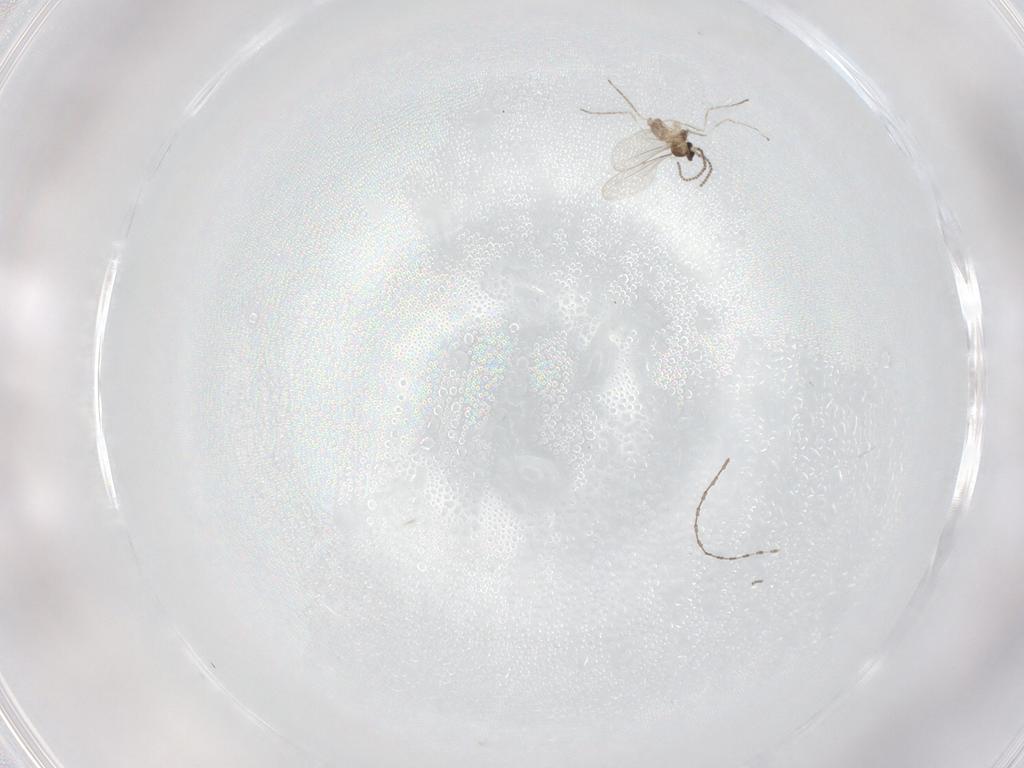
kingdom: Animalia
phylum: Arthropoda
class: Insecta
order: Diptera
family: Cecidomyiidae
